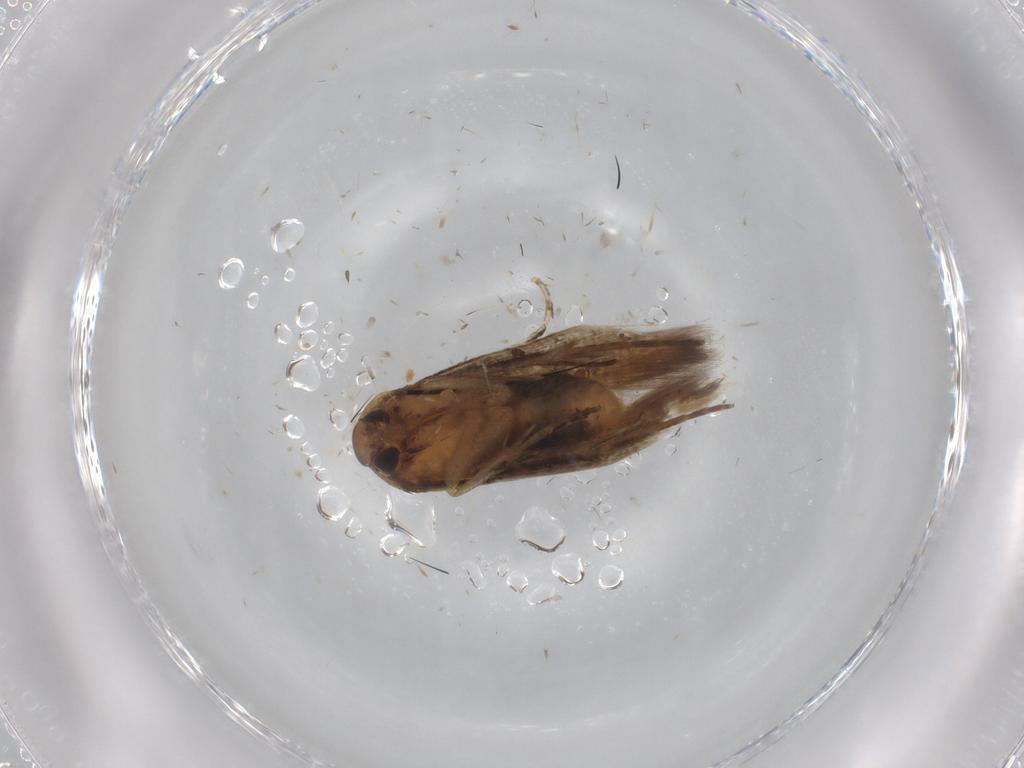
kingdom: Animalia
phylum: Arthropoda
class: Insecta
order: Lepidoptera
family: Cosmopterigidae
